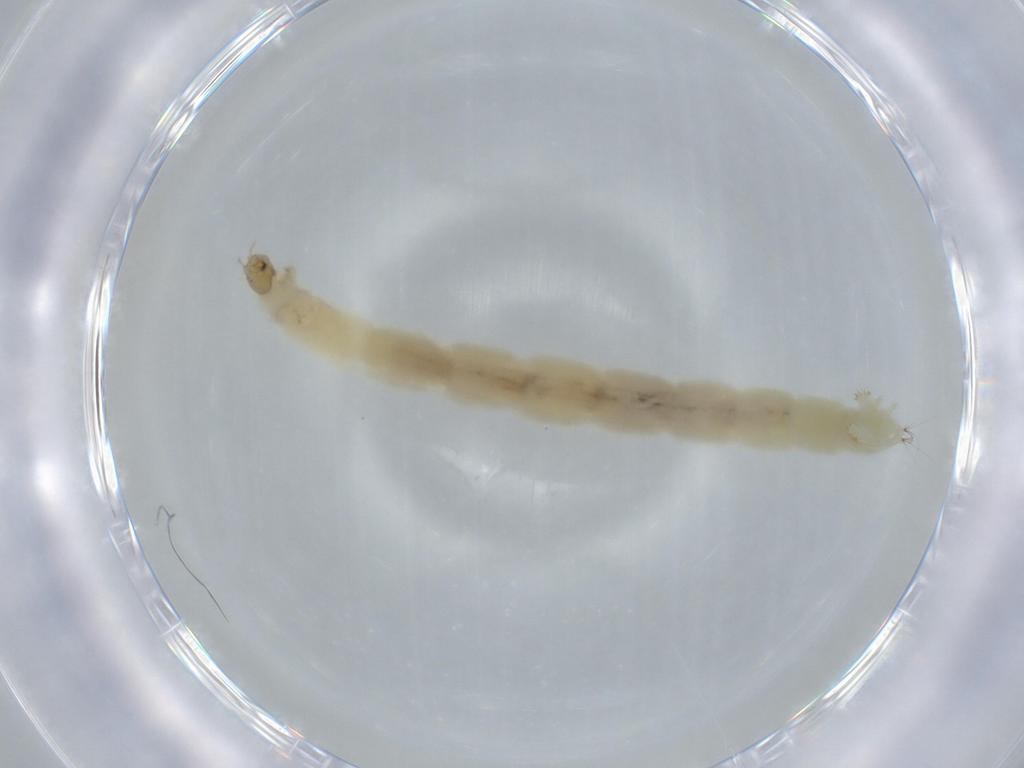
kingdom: Animalia
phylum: Arthropoda
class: Insecta
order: Diptera
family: Chironomidae
